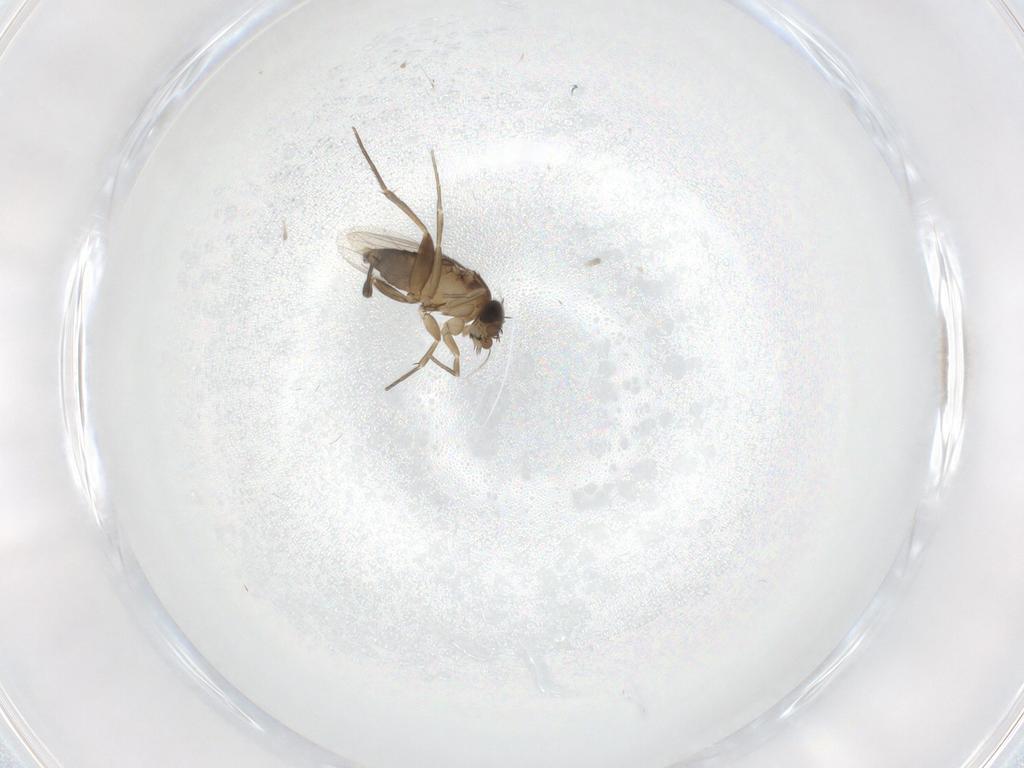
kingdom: Animalia
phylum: Arthropoda
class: Insecta
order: Diptera
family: Phoridae
